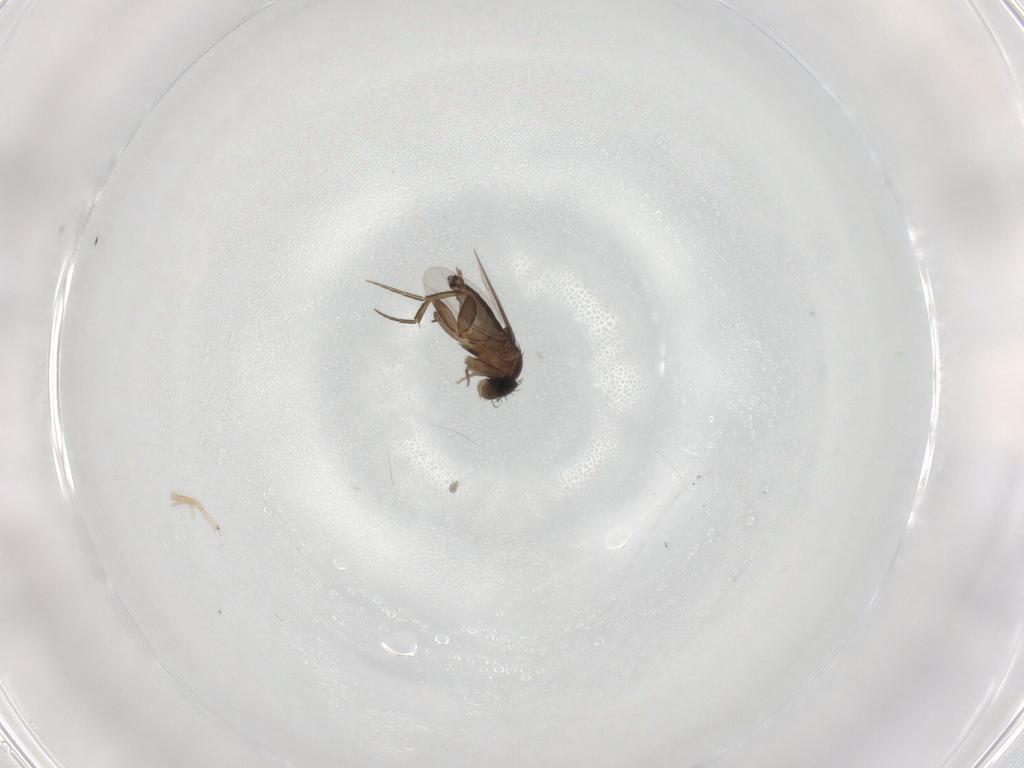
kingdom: Animalia
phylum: Arthropoda
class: Insecta
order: Diptera
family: Phoridae
